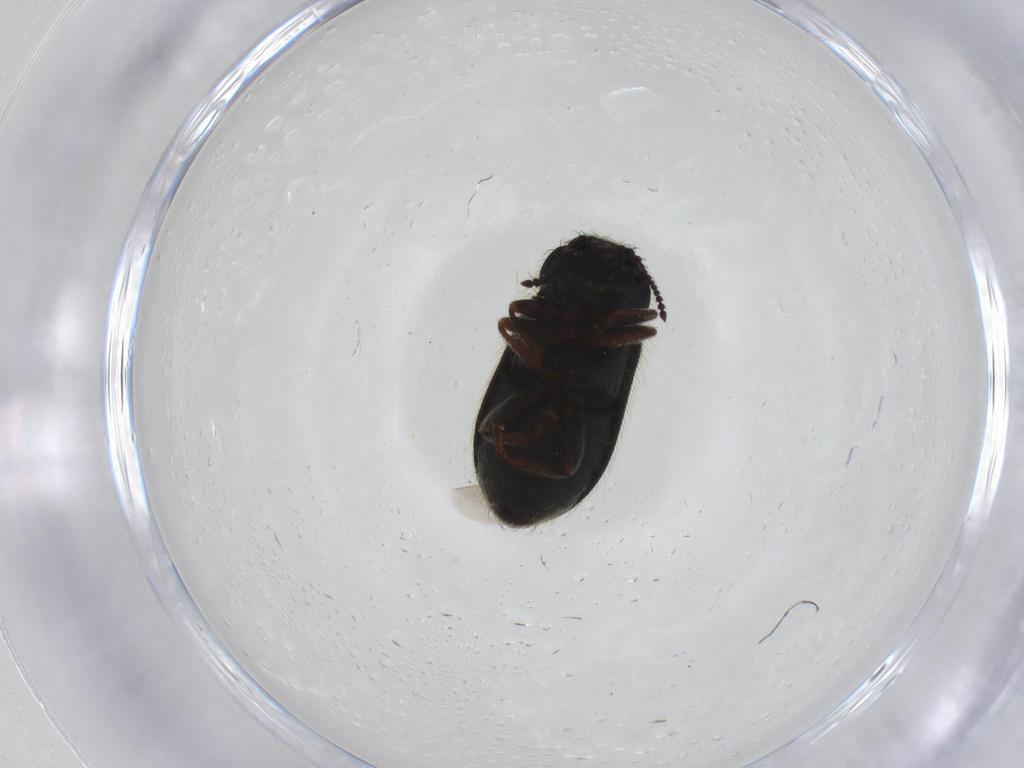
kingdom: Animalia
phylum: Arthropoda
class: Insecta
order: Coleoptera
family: Melyridae
